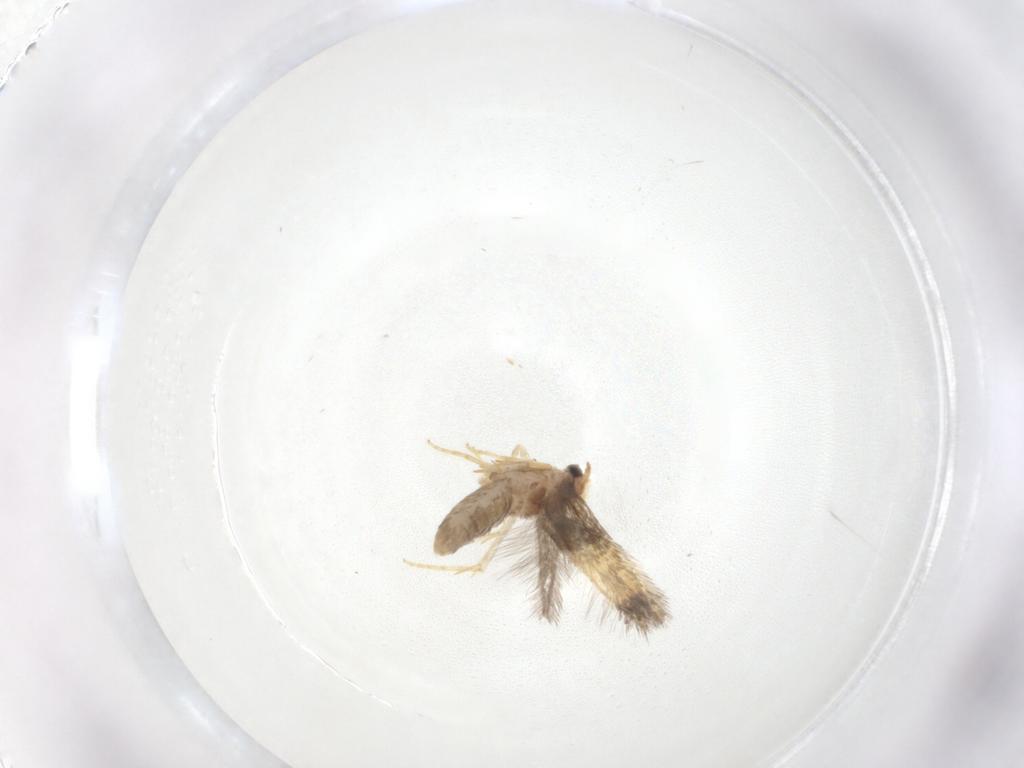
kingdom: Animalia
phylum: Arthropoda
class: Insecta
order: Lepidoptera
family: Nepticulidae
